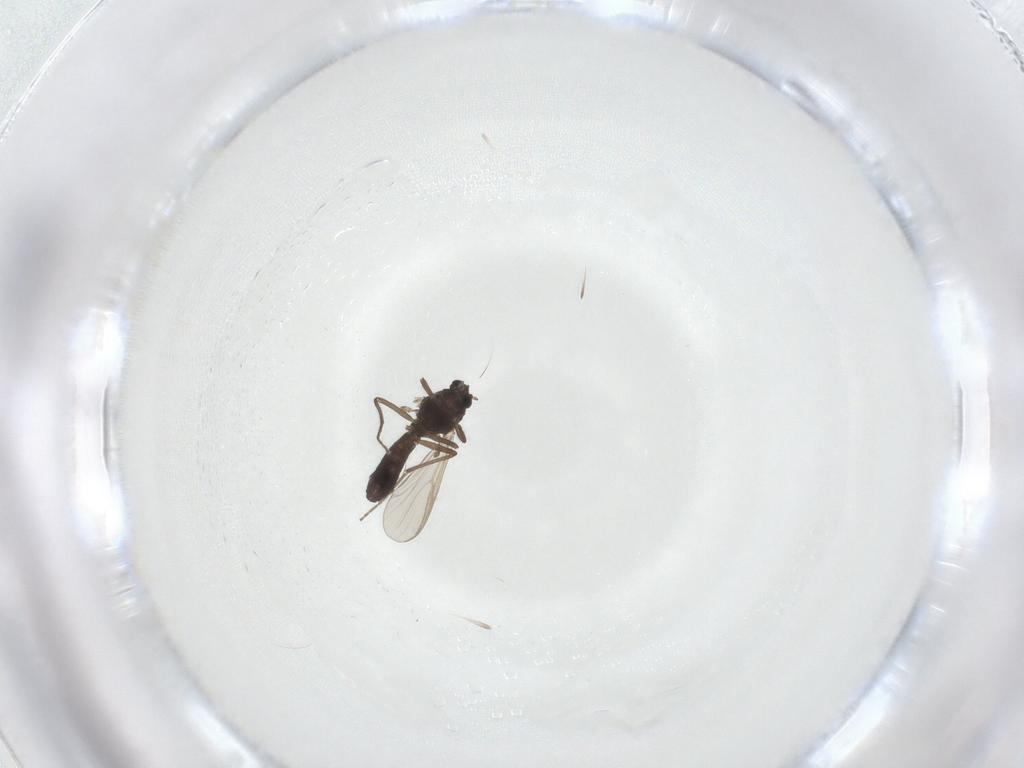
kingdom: Animalia
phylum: Arthropoda
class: Insecta
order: Diptera
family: Chironomidae
